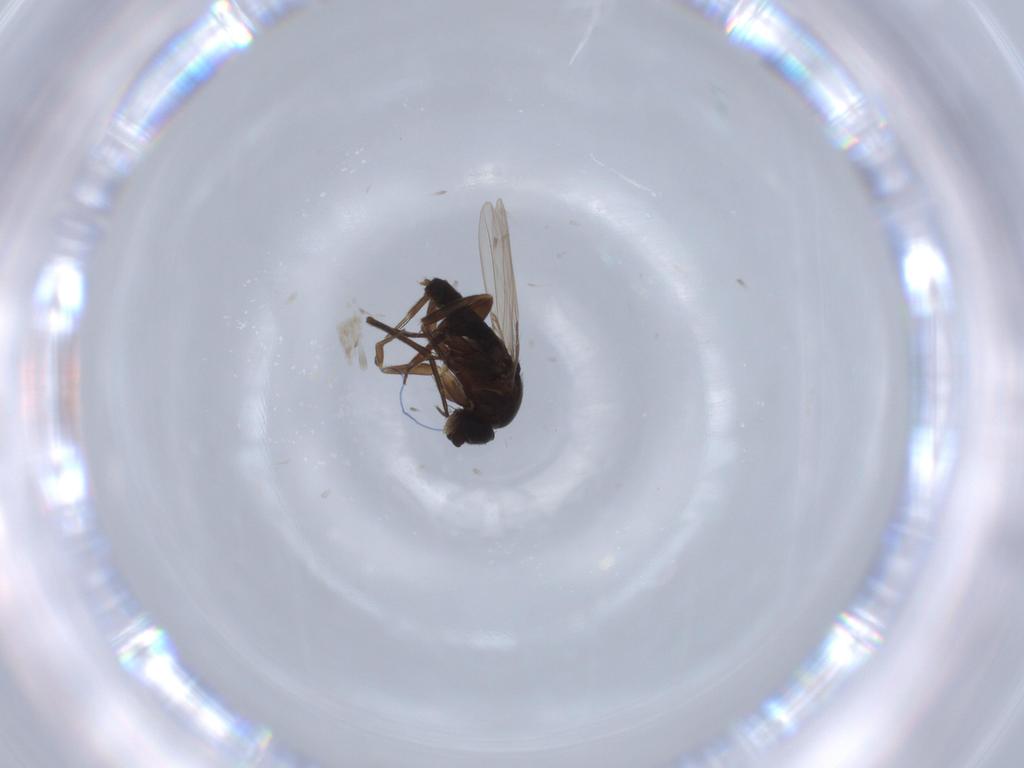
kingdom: Animalia
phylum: Arthropoda
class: Insecta
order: Diptera
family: Phoridae
